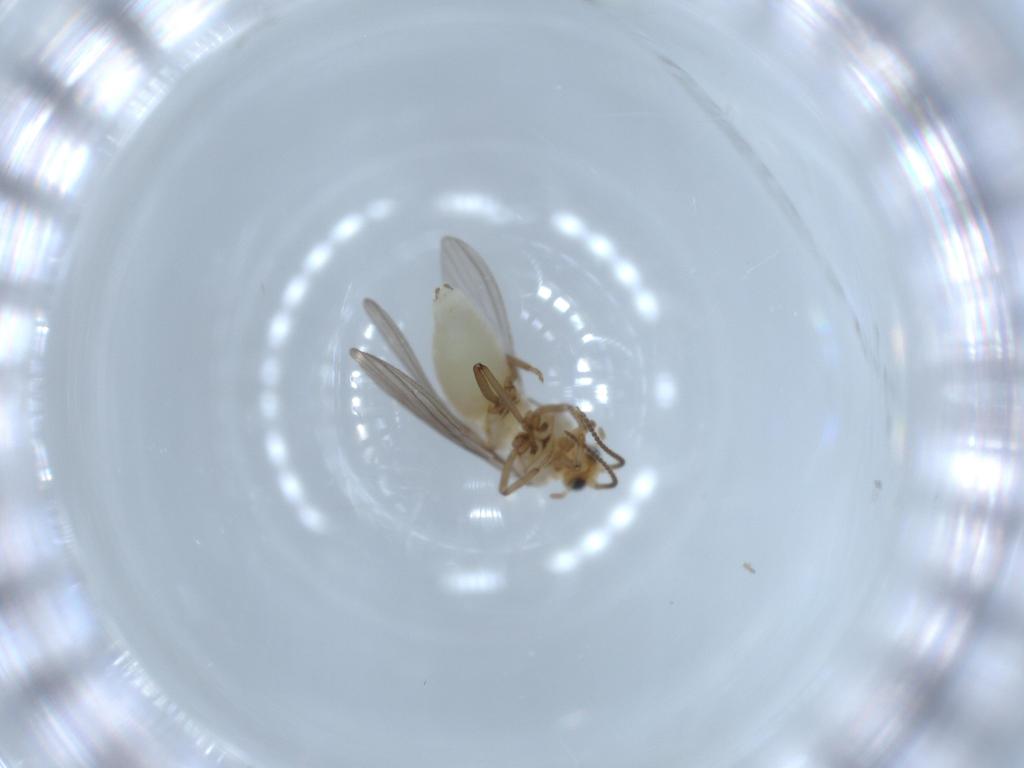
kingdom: Animalia
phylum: Arthropoda
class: Insecta
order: Neuroptera
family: Coniopterygidae
